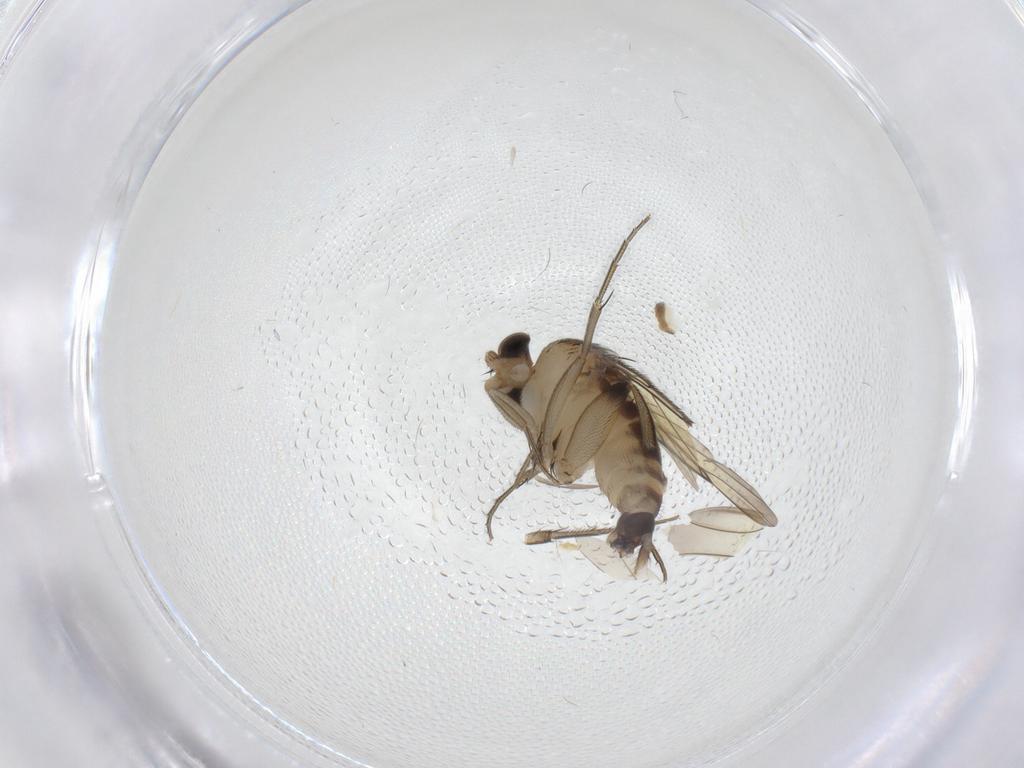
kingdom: Animalia
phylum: Arthropoda
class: Insecta
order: Diptera
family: Phoridae
